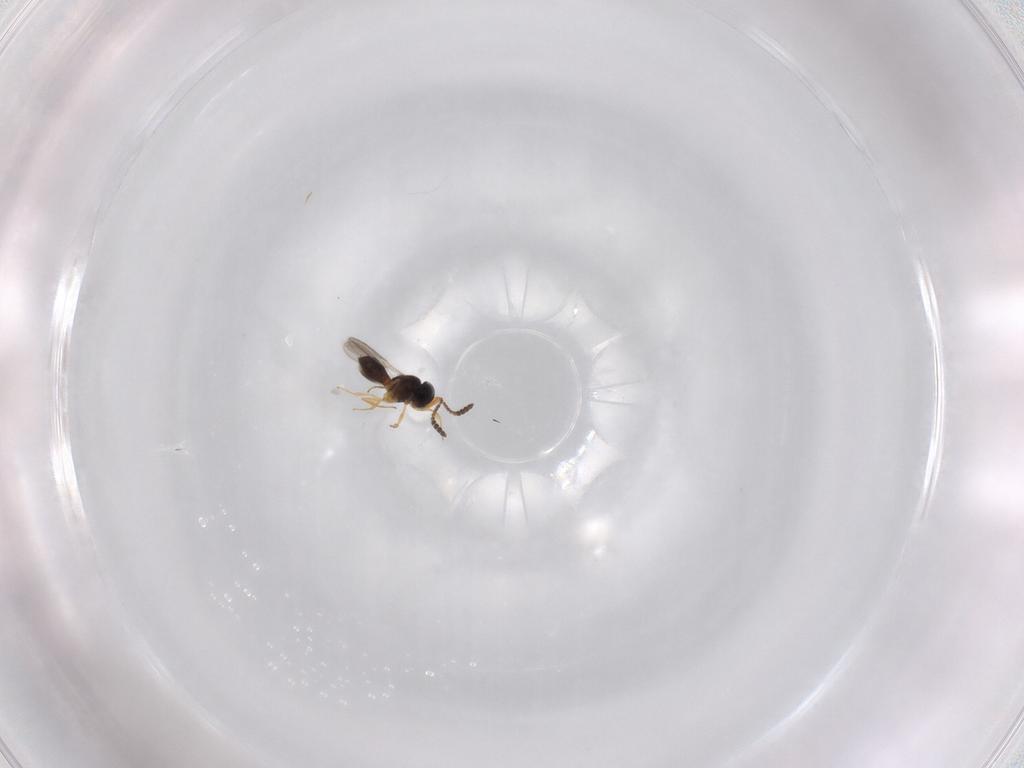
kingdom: Animalia
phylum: Arthropoda
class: Insecta
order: Hymenoptera
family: Scelionidae
